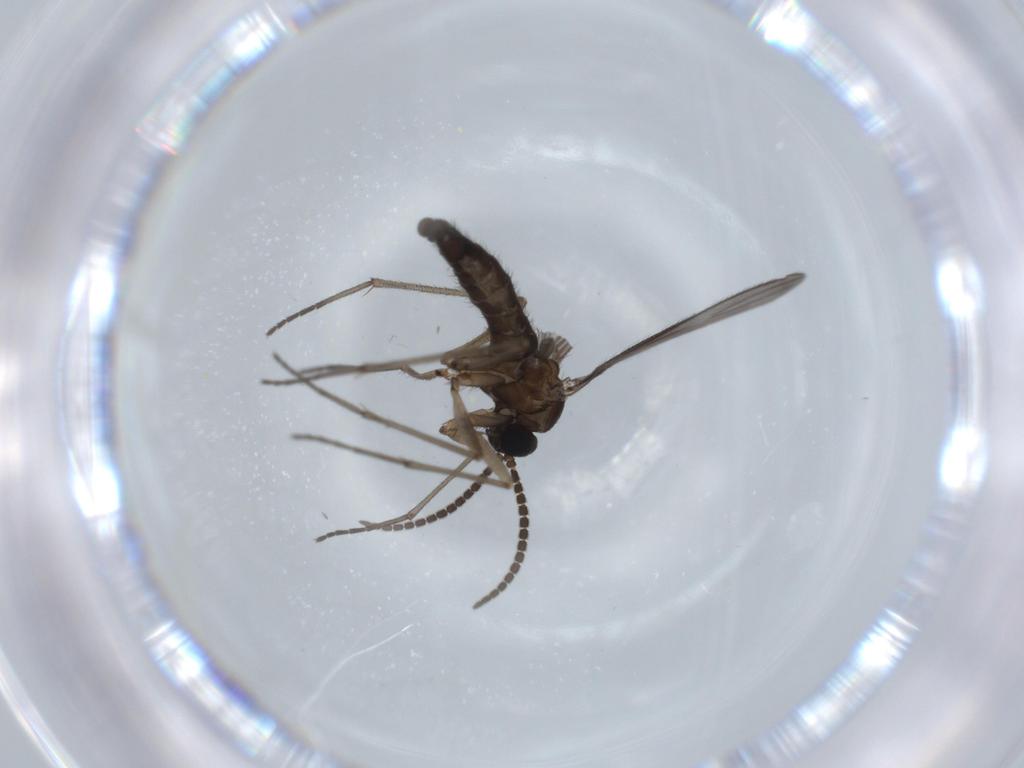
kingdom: Animalia
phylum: Arthropoda
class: Insecta
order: Diptera
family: Sciaridae
